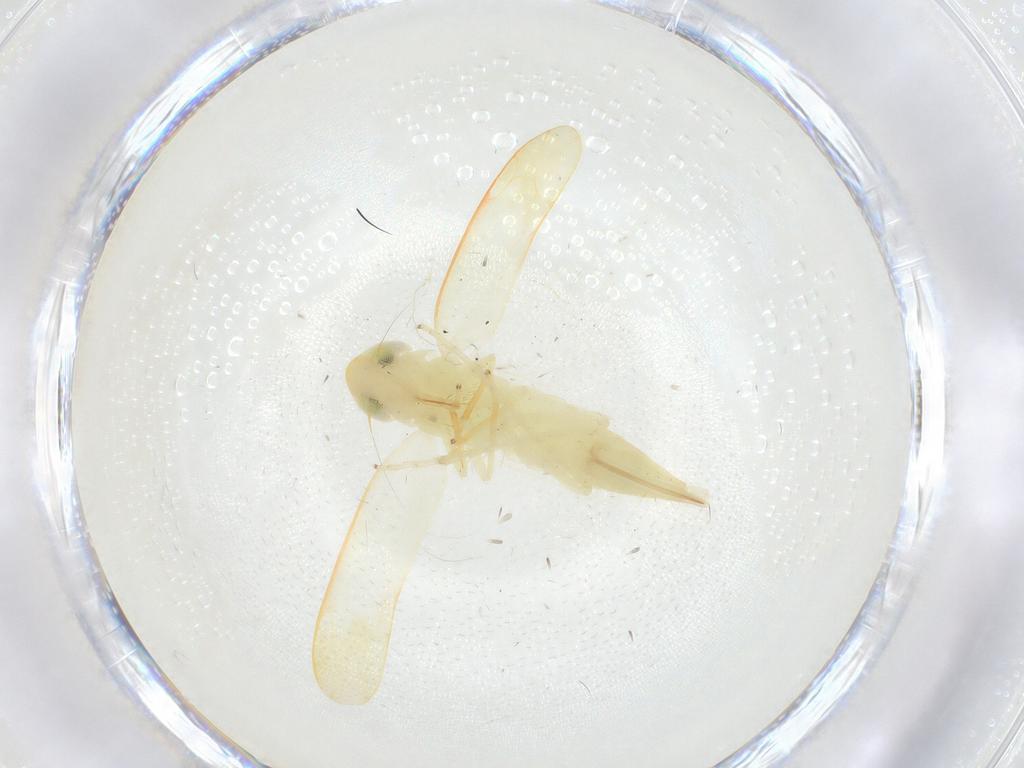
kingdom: Animalia
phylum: Arthropoda
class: Insecta
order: Hemiptera
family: Cicadellidae
